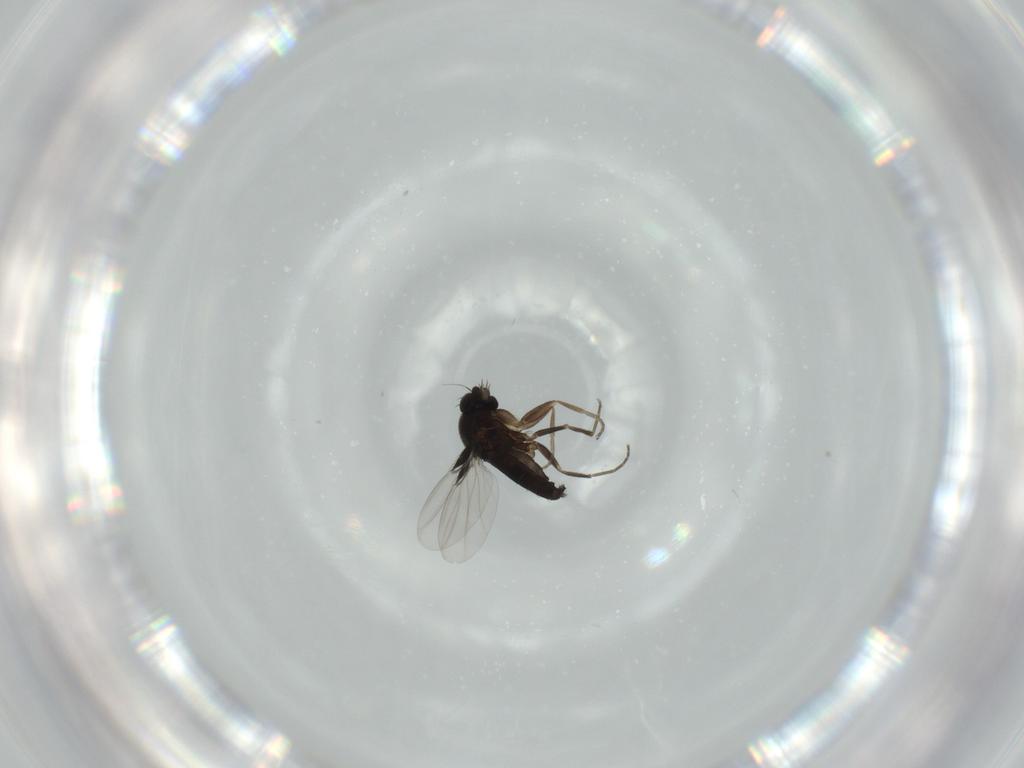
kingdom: Animalia
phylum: Arthropoda
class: Insecta
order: Diptera
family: Phoridae
